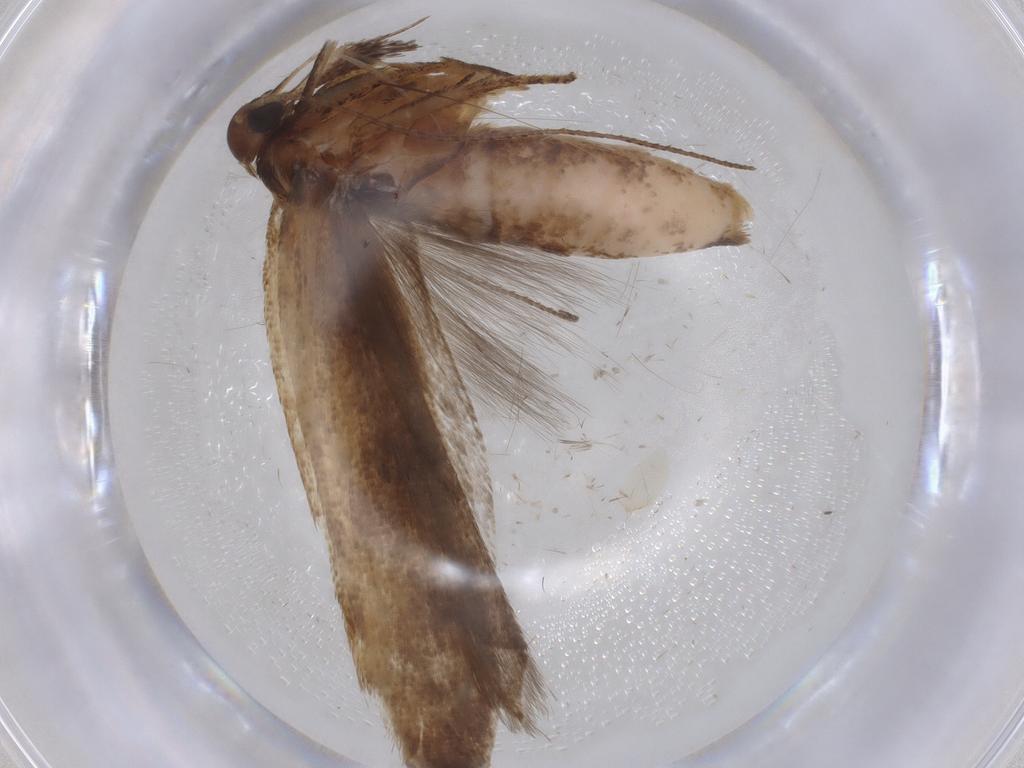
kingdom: Animalia
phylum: Arthropoda
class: Insecta
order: Lepidoptera
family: Gelechiidae
